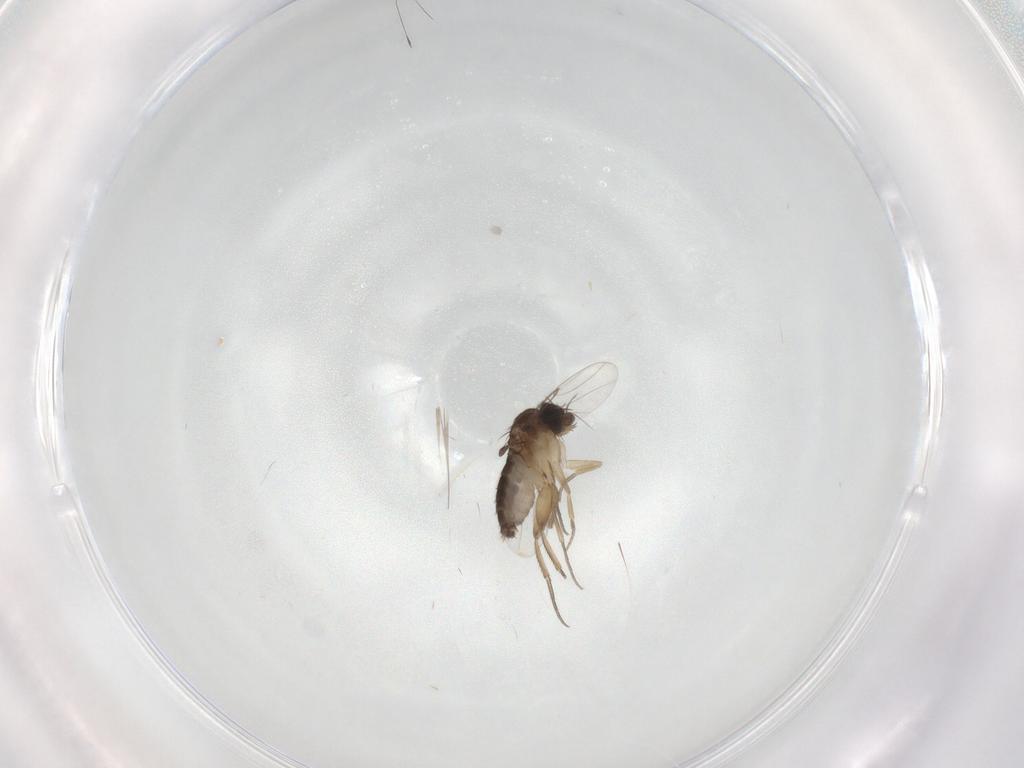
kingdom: Animalia
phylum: Arthropoda
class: Insecta
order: Diptera
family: Phoridae
